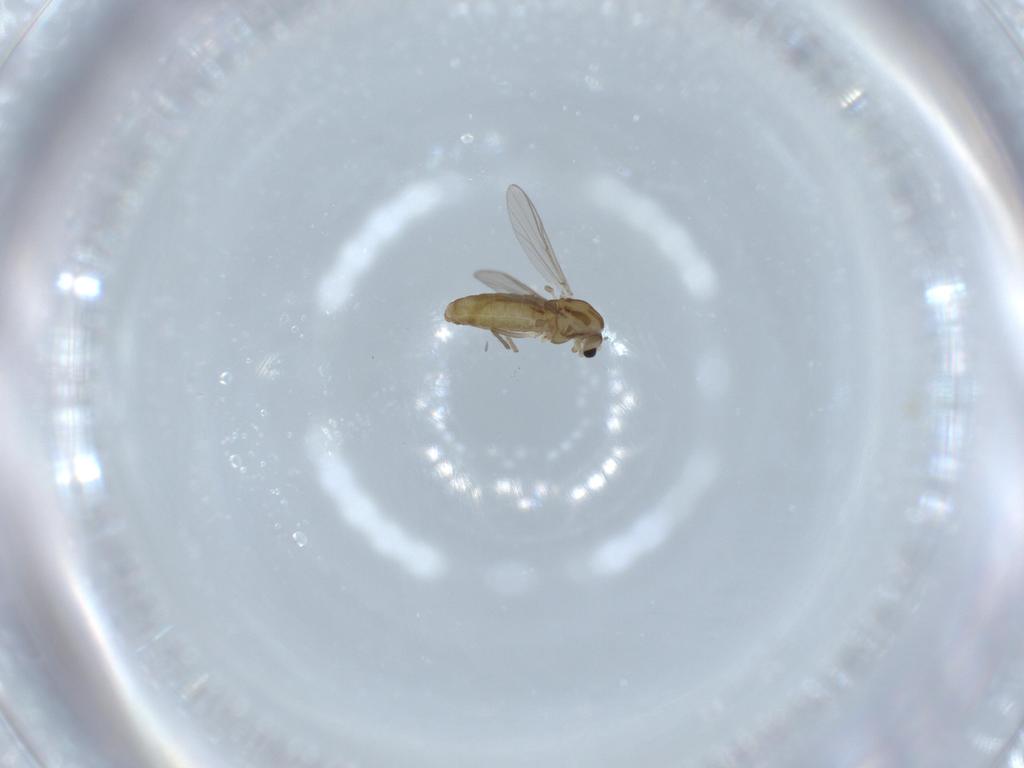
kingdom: Animalia
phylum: Arthropoda
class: Insecta
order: Diptera
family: Chironomidae
